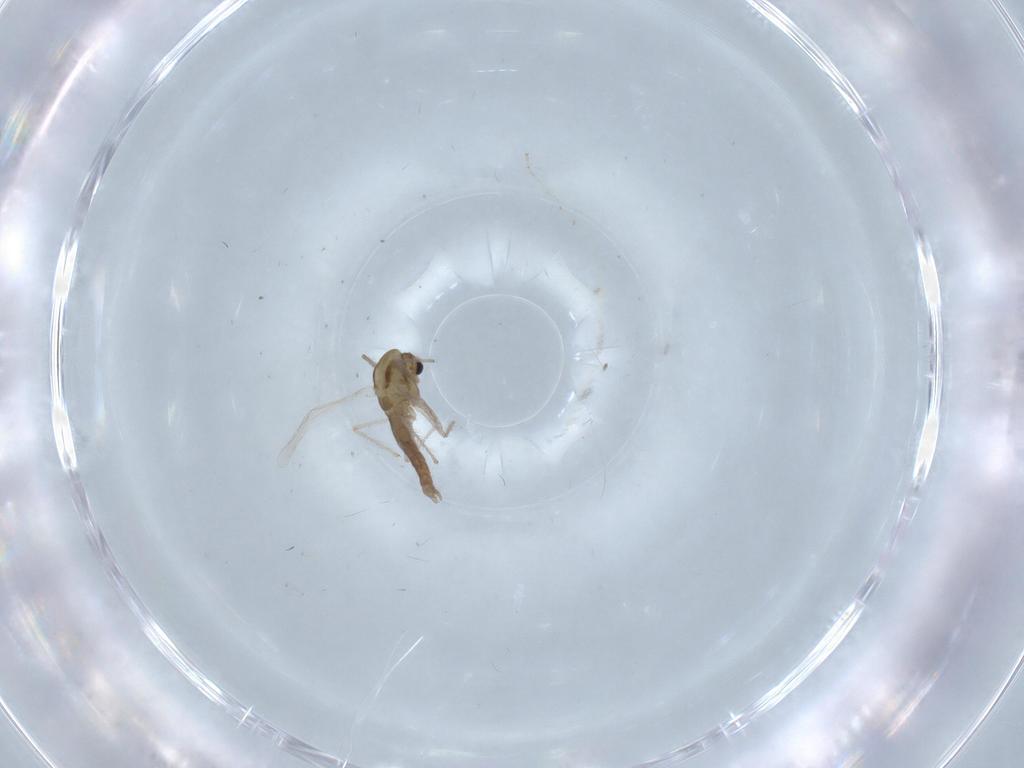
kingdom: Animalia
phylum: Arthropoda
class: Insecta
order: Diptera
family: Chironomidae
